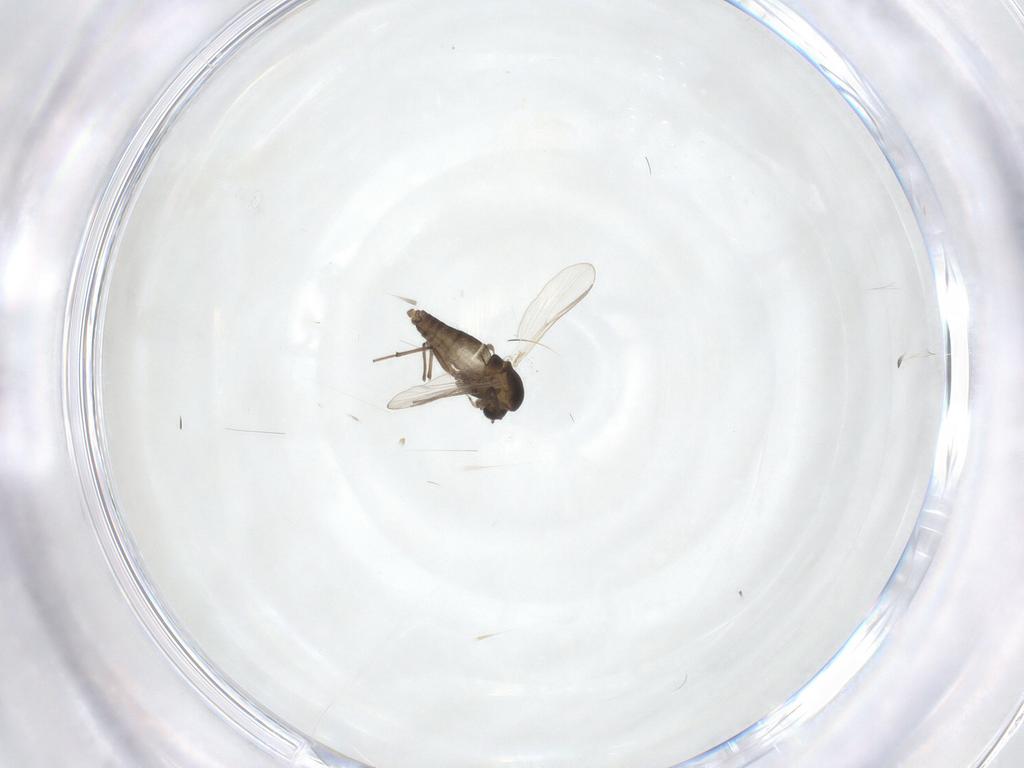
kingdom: Animalia
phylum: Arthropoda
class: Insecta
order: Diptera
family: Chironomidae
